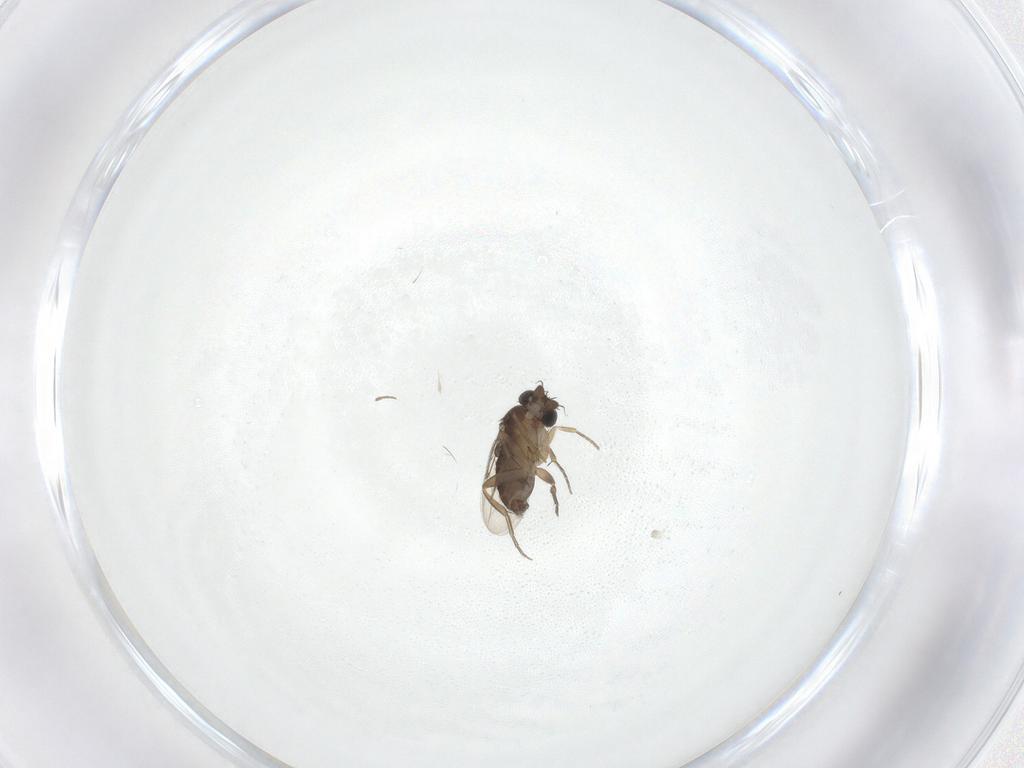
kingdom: Animalia
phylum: Arthropoda
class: Insecta
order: Diptera
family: Phoridae
